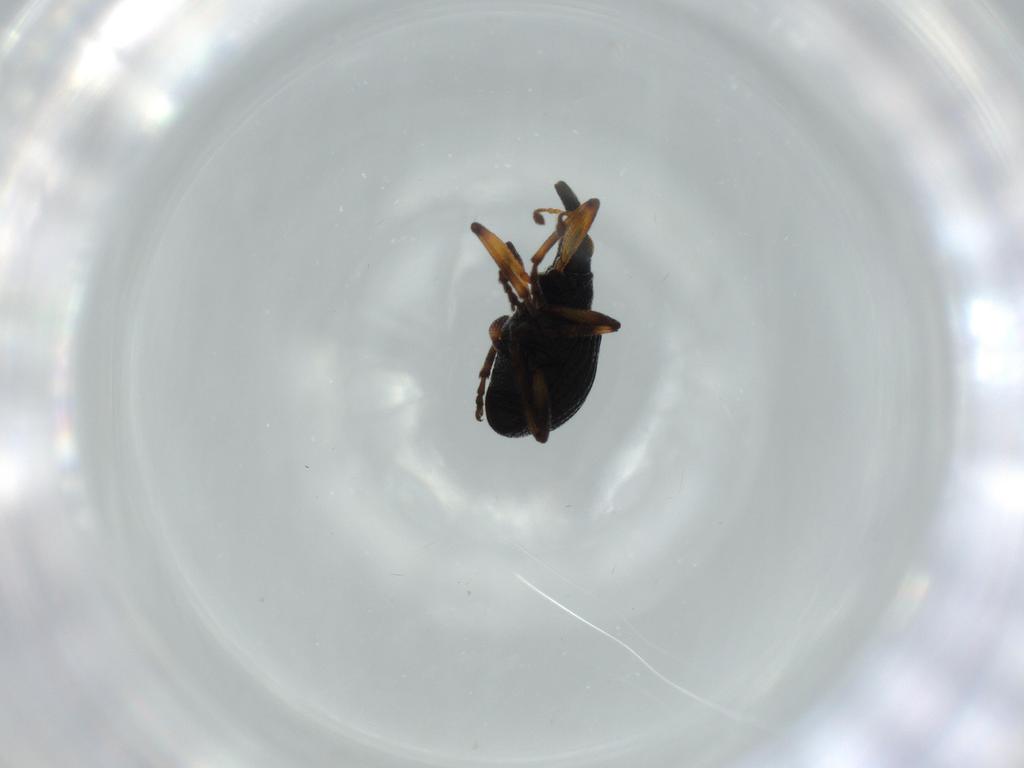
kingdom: Animalia
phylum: Arthropoda
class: Insecta
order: Coleoptera
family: Brentidae
